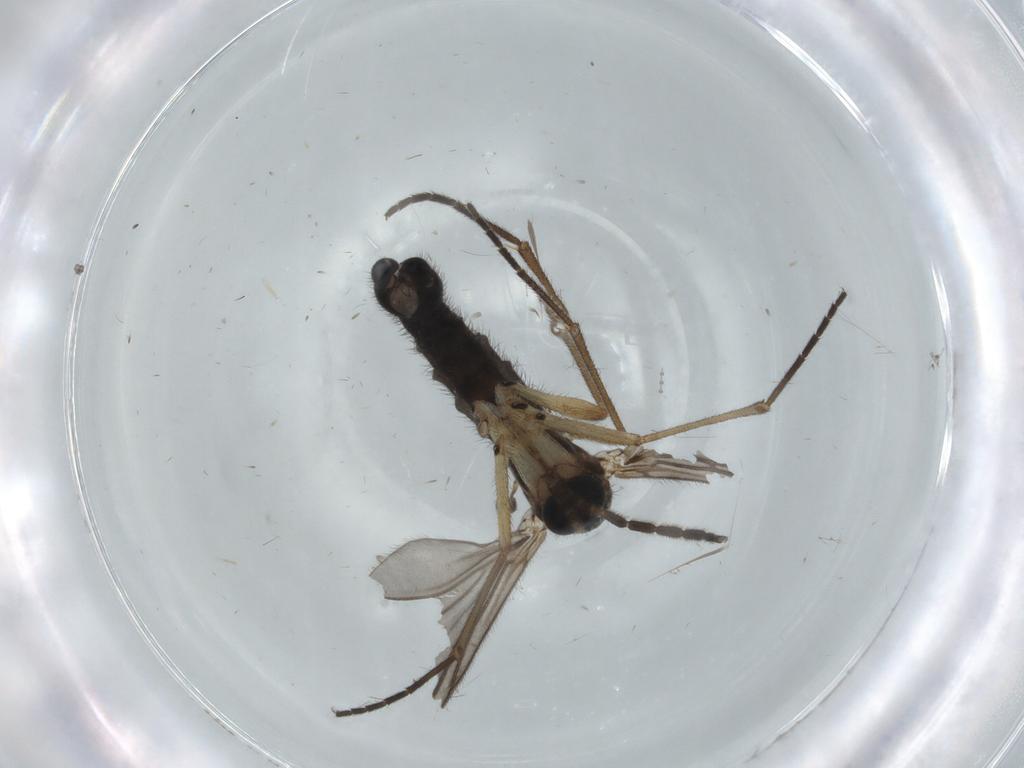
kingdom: Animalia
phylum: Arthropoda
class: Insecta
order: Diptera
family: Sciaridae
